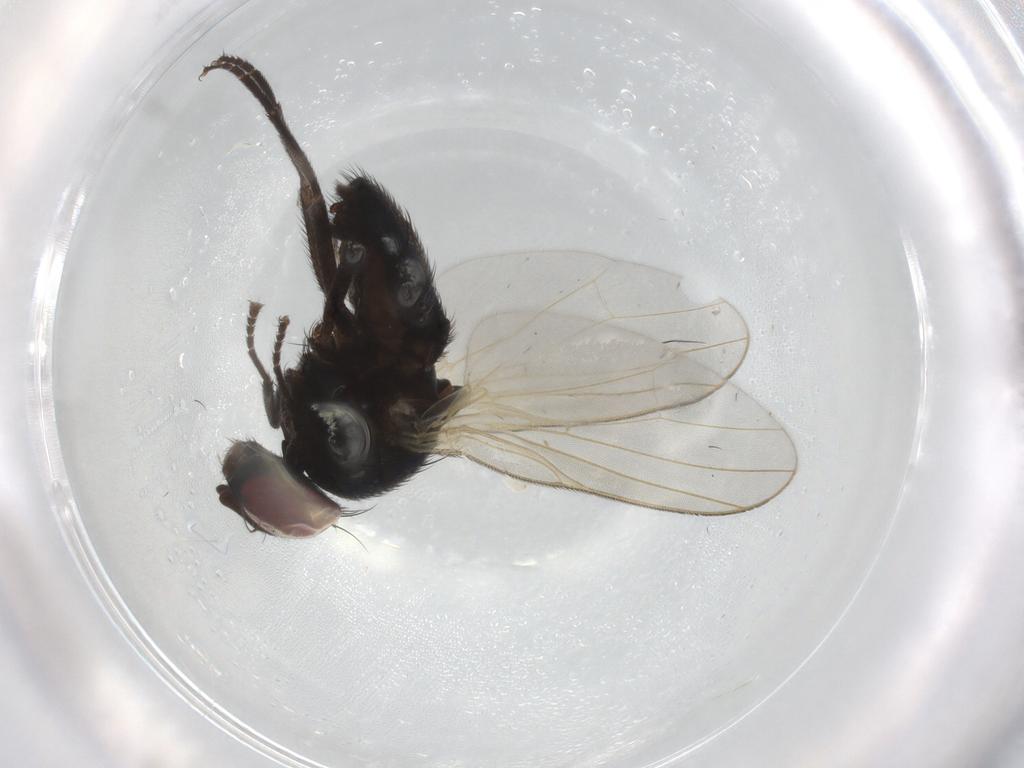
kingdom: Animalia
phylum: Arthropoda
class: Insecta
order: Diptera
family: Lonchaeidae
